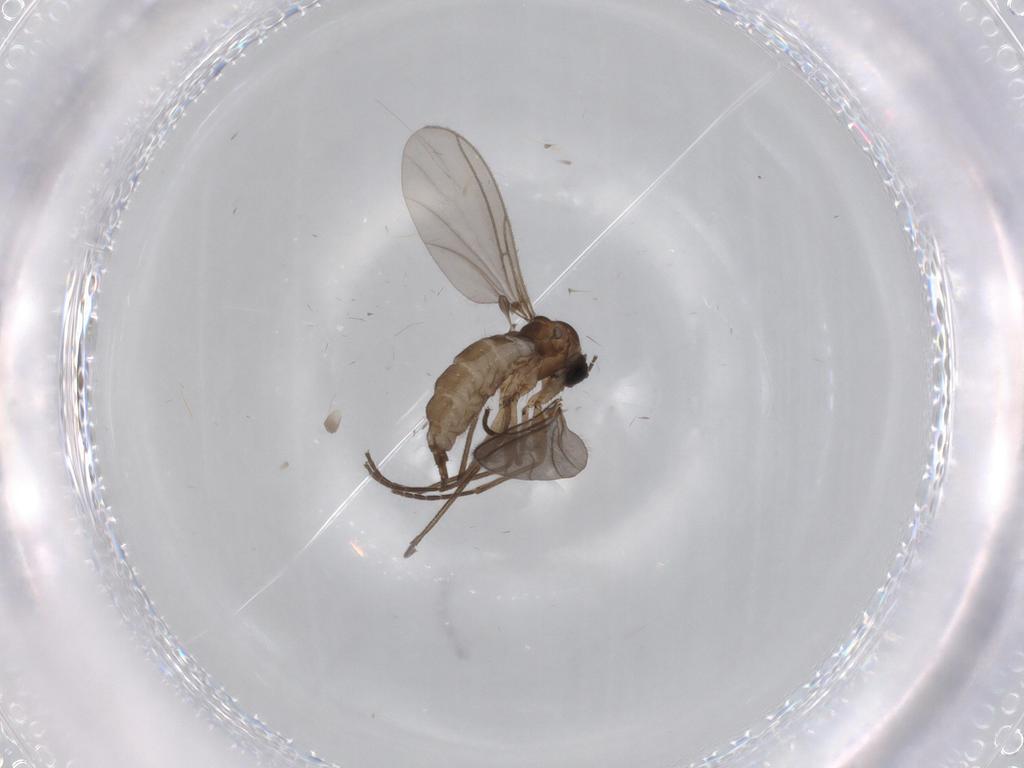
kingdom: Animalia
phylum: Arthropoda
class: Insecta
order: Diptera
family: Sciaridae
